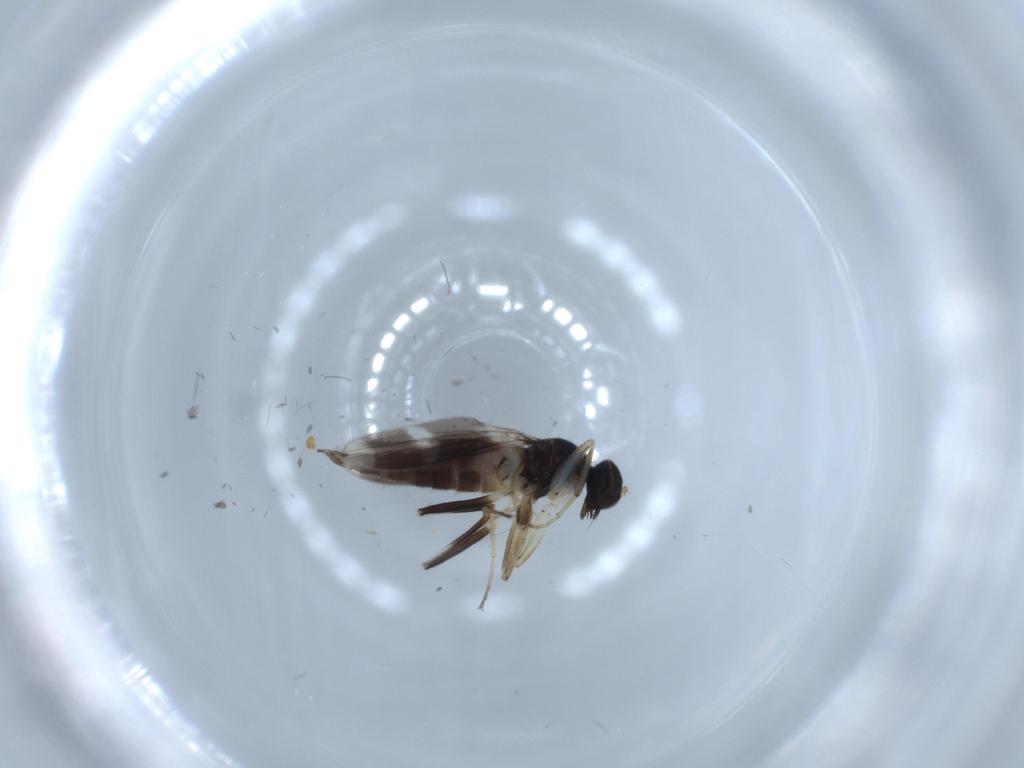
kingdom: Animalia
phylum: Arthropoda
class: Insecta
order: Diptera
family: Hybotidae
